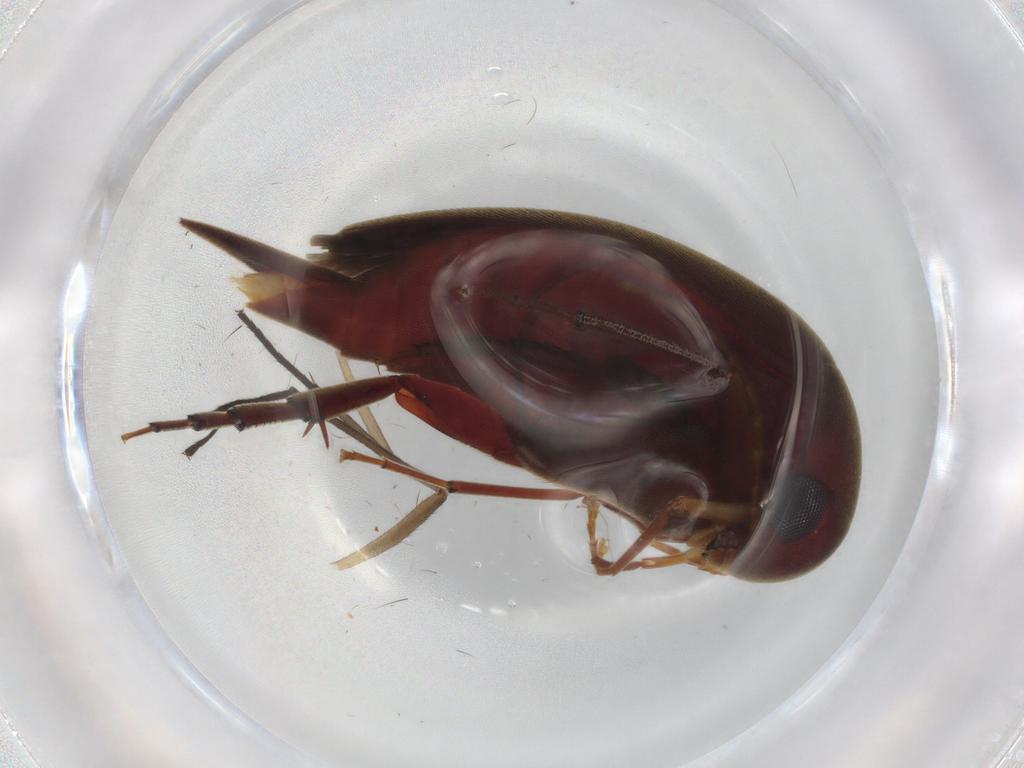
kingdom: Animalia
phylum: Arthropoda
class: Insecta
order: Coleoptera
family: Mordellidae
